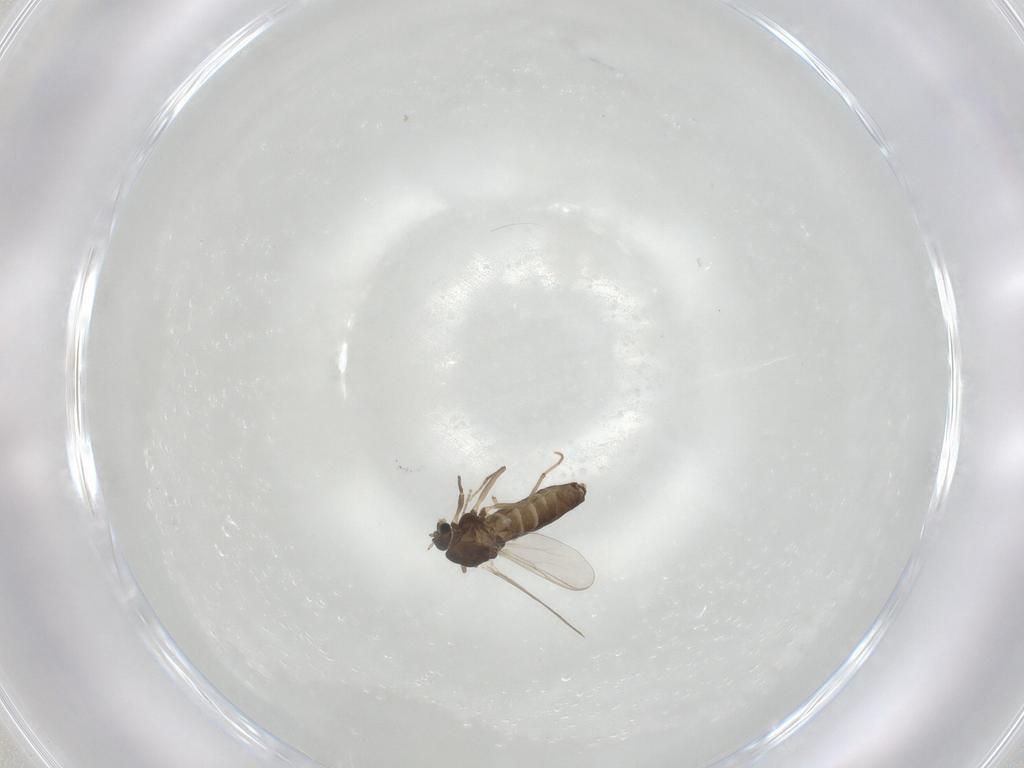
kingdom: Animalia
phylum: Arthropoda
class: Insecta
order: Diptera
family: Chironomidae
